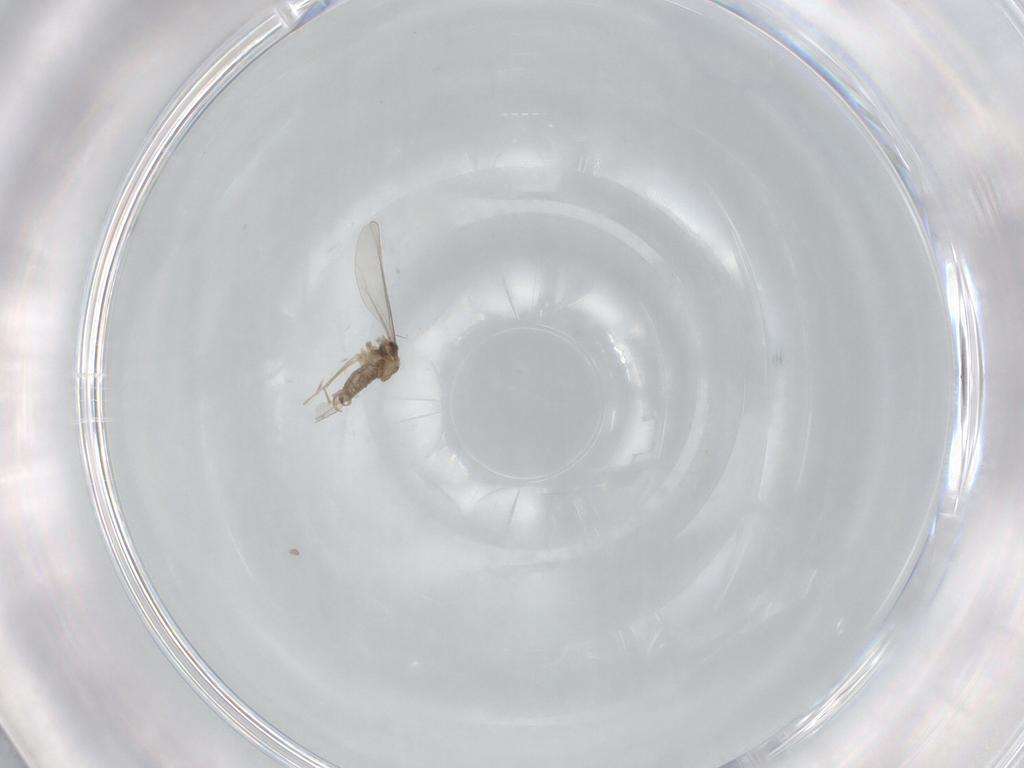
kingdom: Animalia
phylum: Arthropoda
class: Insecta
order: Diptera
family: Cecidomyiidae
